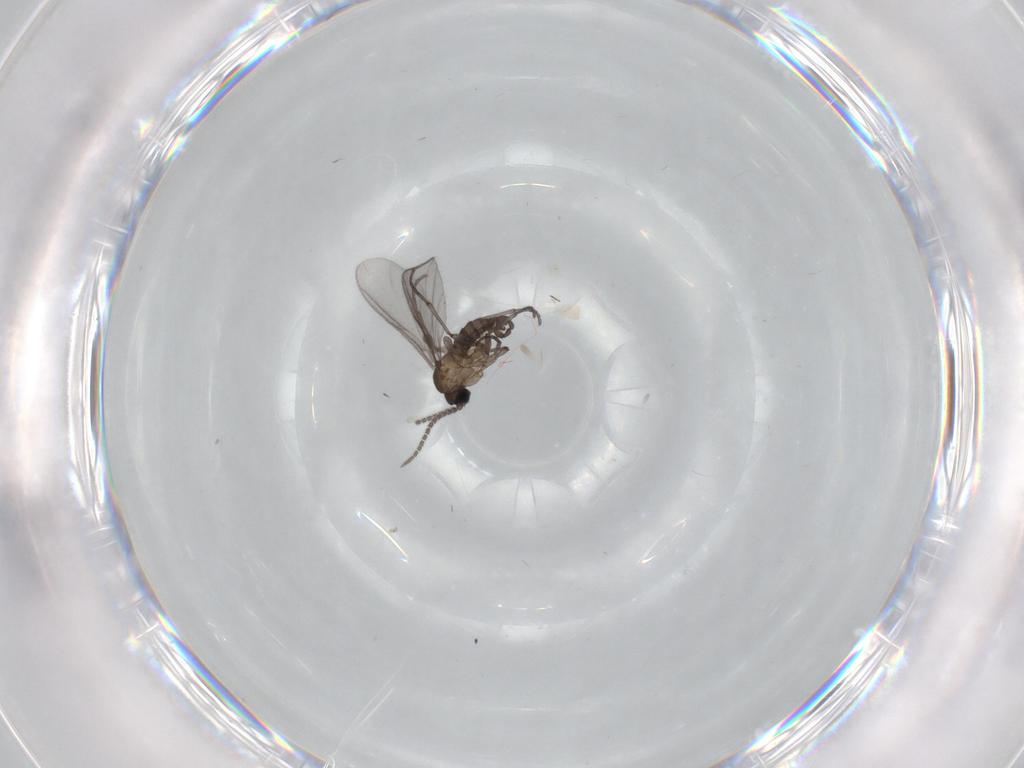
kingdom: Animalia
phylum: Arthropoda
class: Insecta
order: Diptera
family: Sciaridae
